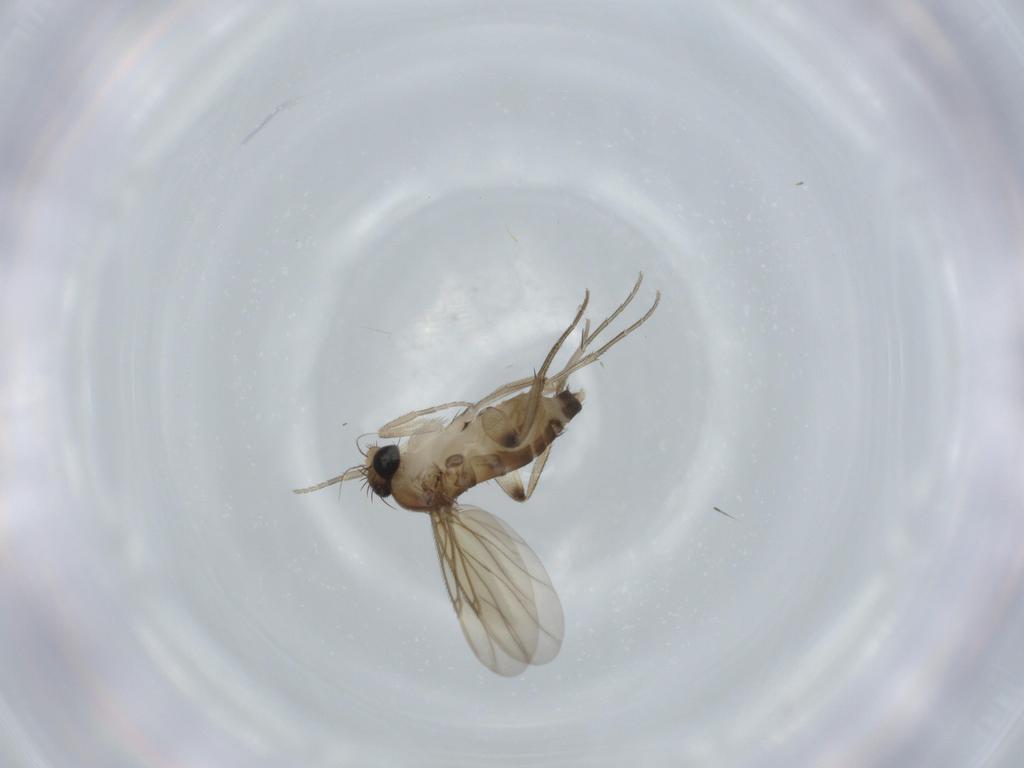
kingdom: Animalia
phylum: Arthropoda
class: Insecta
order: Diptera
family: Phoridae
